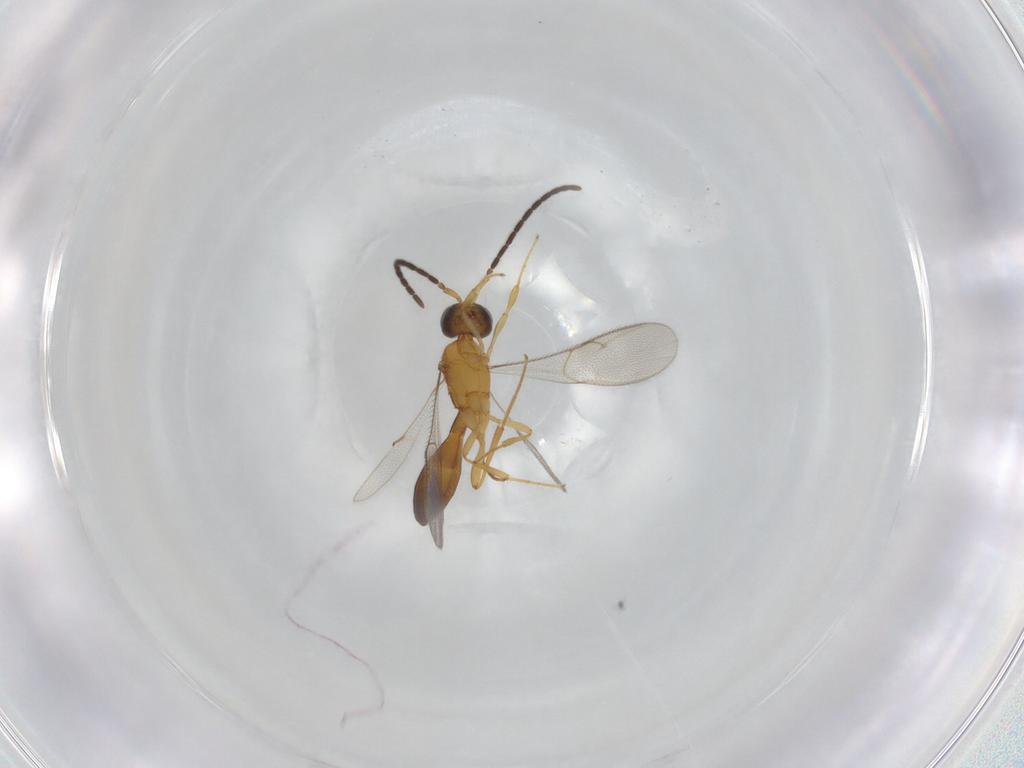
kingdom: Animalia
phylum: Arthropoda
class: Insecta
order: Hymenoptera
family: Scelionidae
